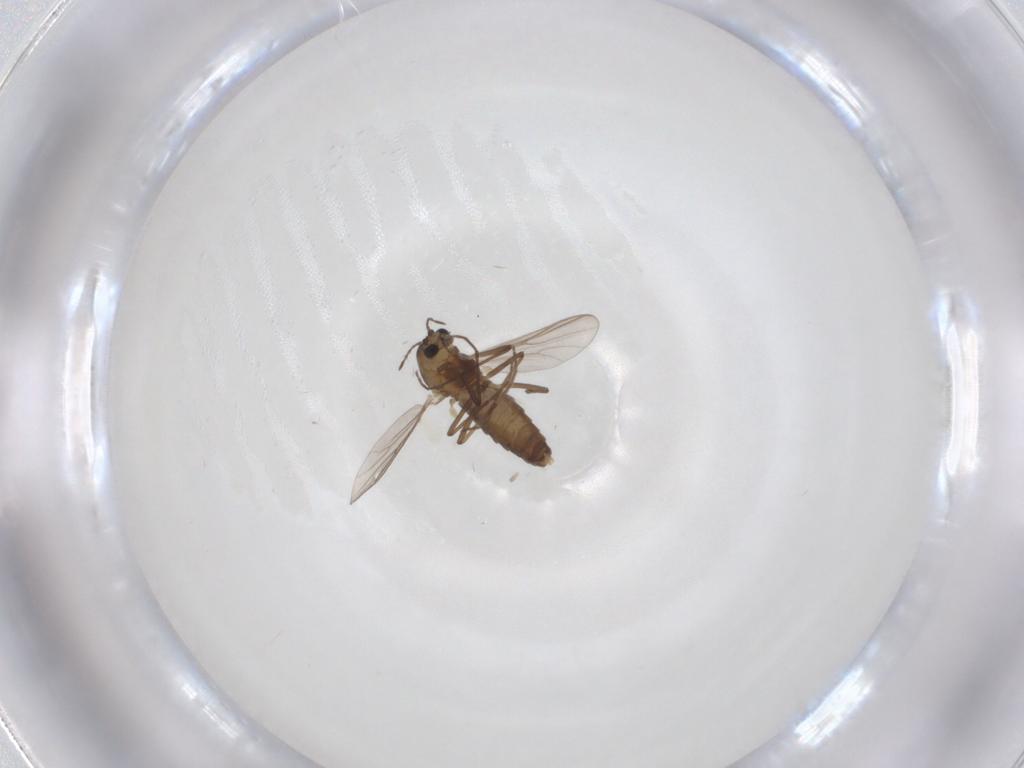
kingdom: Animalia
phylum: Arthropoda
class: Insecta
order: Diptera
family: Chironomidae
